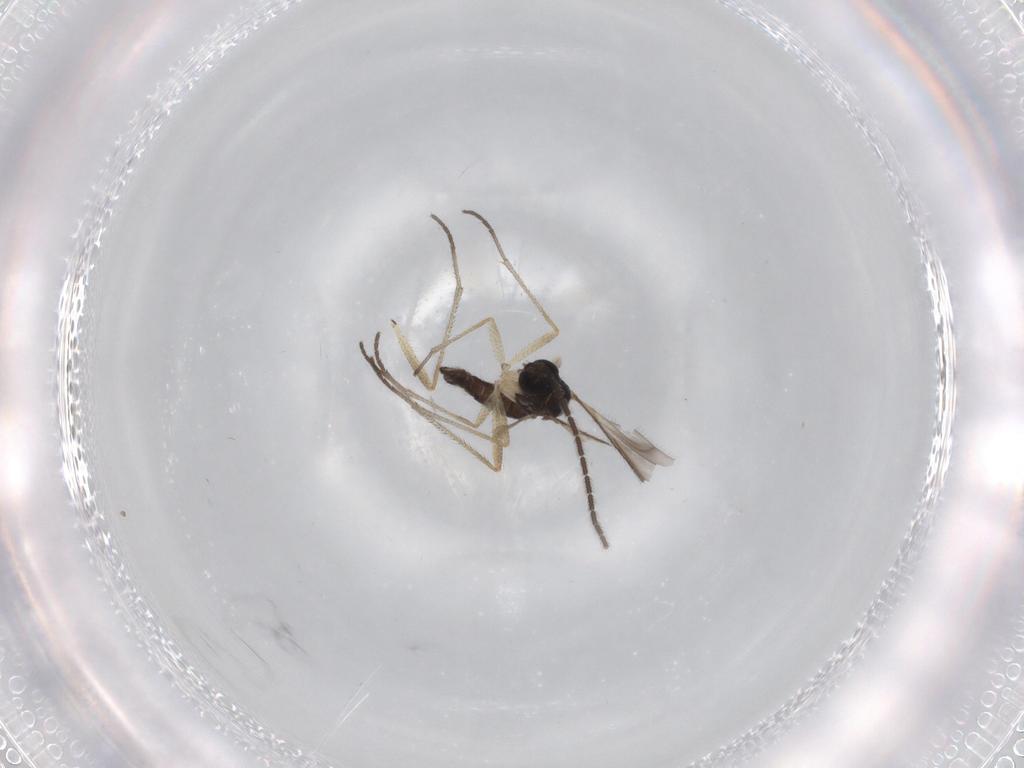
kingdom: Animalia
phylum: Arthropoda
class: Insecta
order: Diptera
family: Sciaridae
